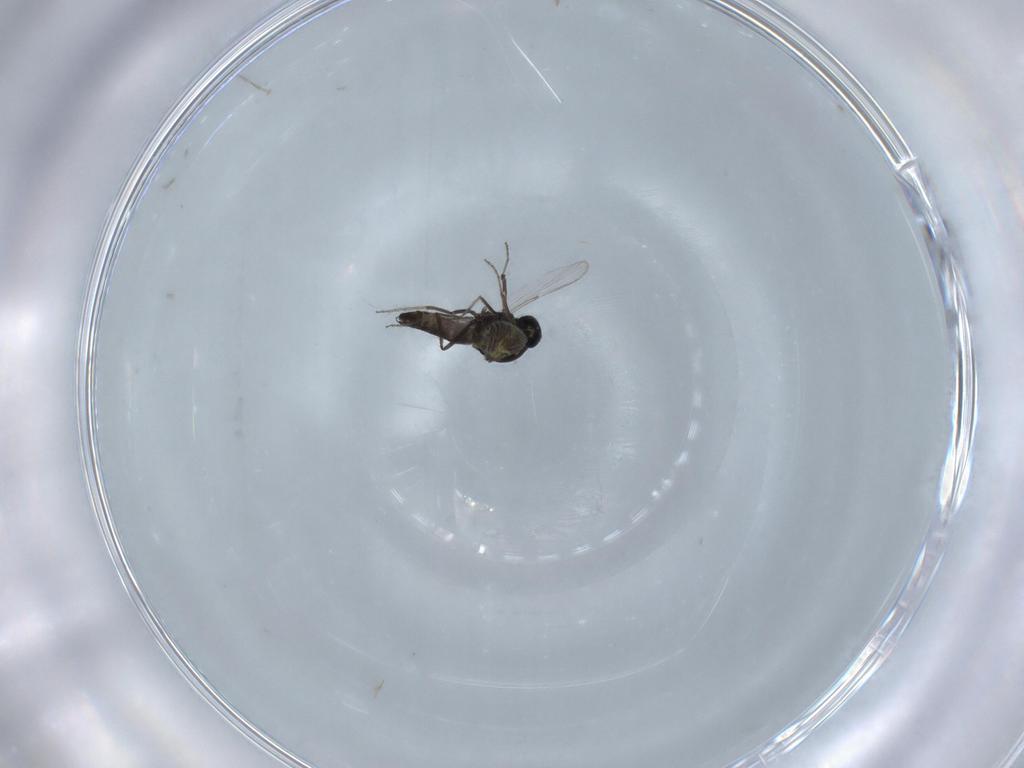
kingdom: Animalia
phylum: Arthropoda
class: Insecta
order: Diptera
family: Ceratopogonidae
